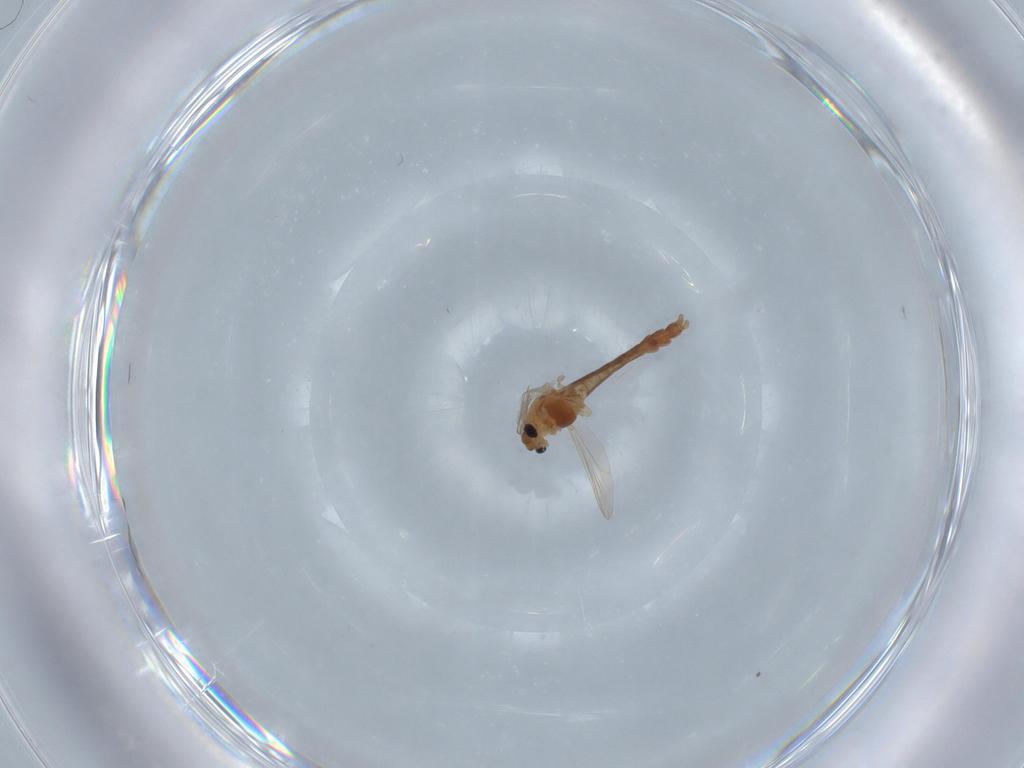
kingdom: Animalia
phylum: Arthropoda
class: Insecta
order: Diptera
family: Chironomidae
